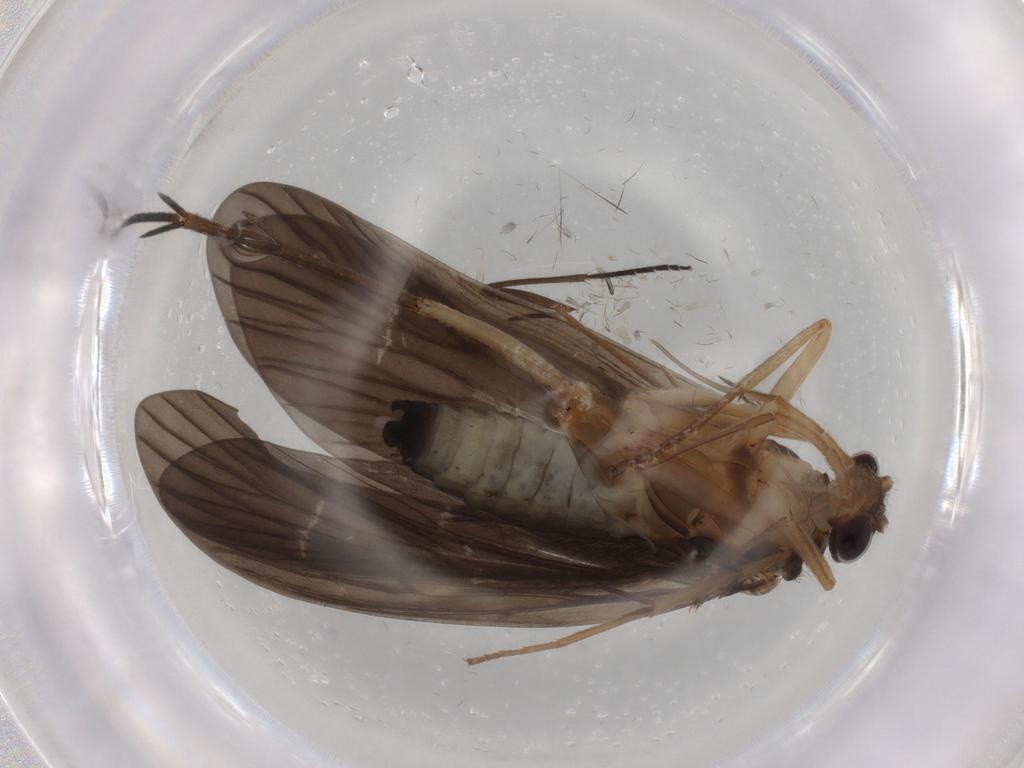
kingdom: Animalia
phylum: Arthropoda
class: Insecta
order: Trichoptera
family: Philopotamidae
